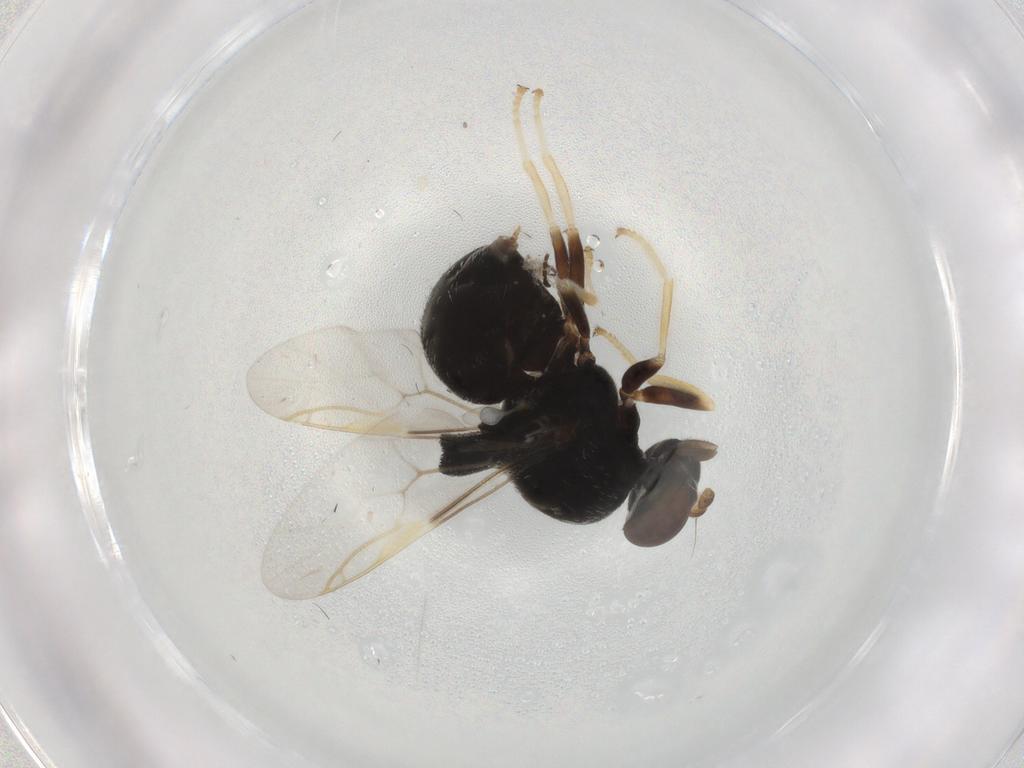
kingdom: Animalia
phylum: Arthropoda
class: Insecta
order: Diptera
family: Stratiomyidae
